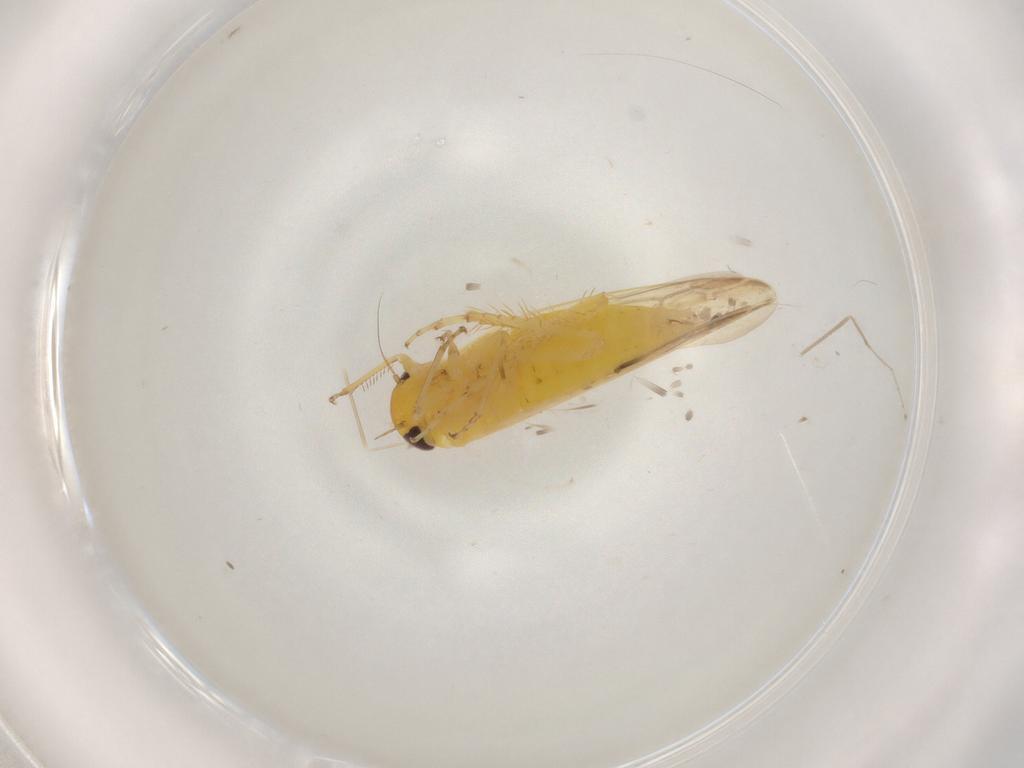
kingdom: Animalia
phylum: Arthropoda
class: Insecta
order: Hemiptera
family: Cicadellidae
